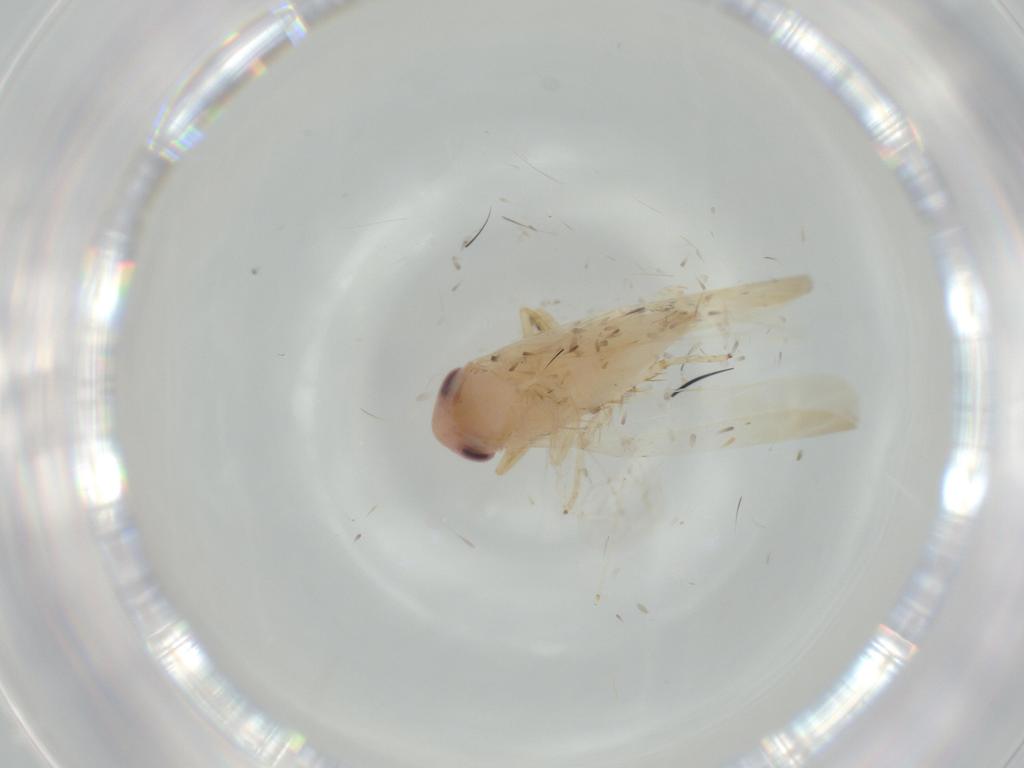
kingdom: Animalia
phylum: Arthropoda
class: Insecta
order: Hemiptera
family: Cicadellidae
